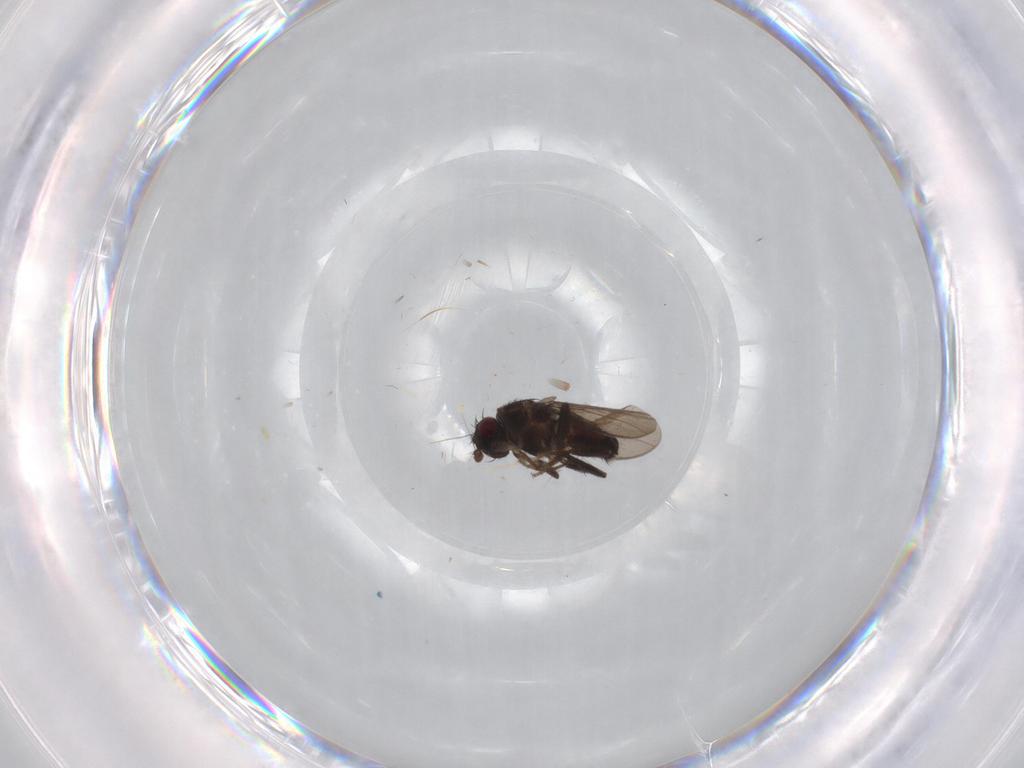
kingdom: Animalia
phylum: Arthropoda
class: Insecta
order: Diptera
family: Sphaeroceridae
